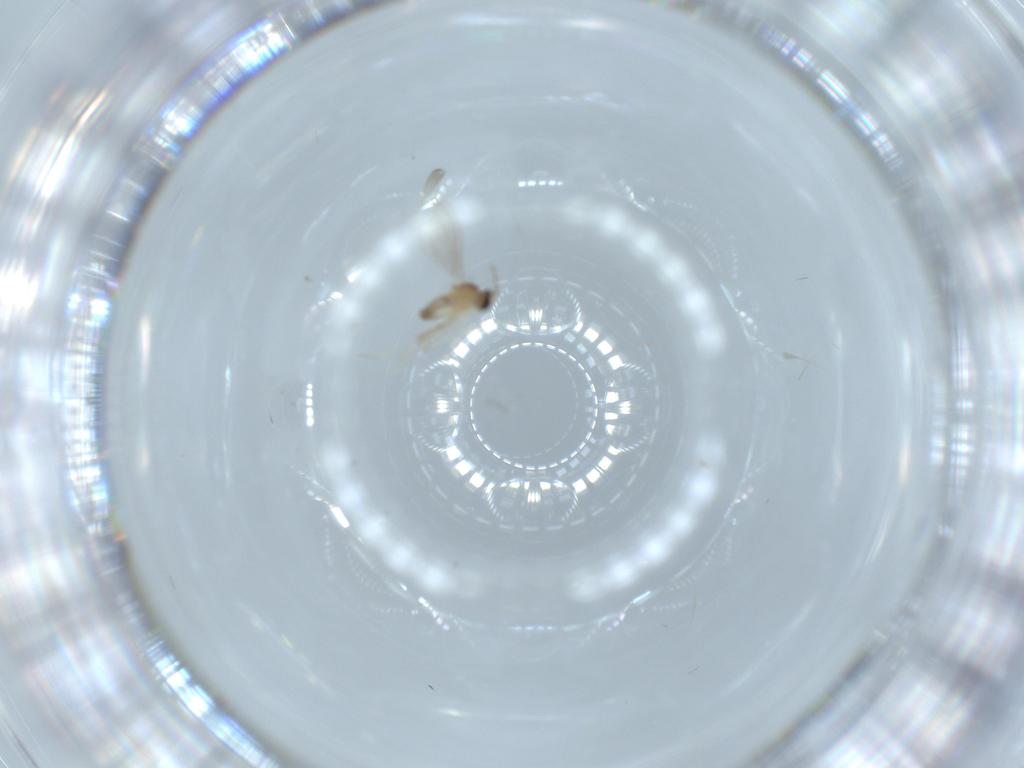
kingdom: Animalia
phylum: Arthropoda
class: Insecta
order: Diptera
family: Cecidomyiidae
